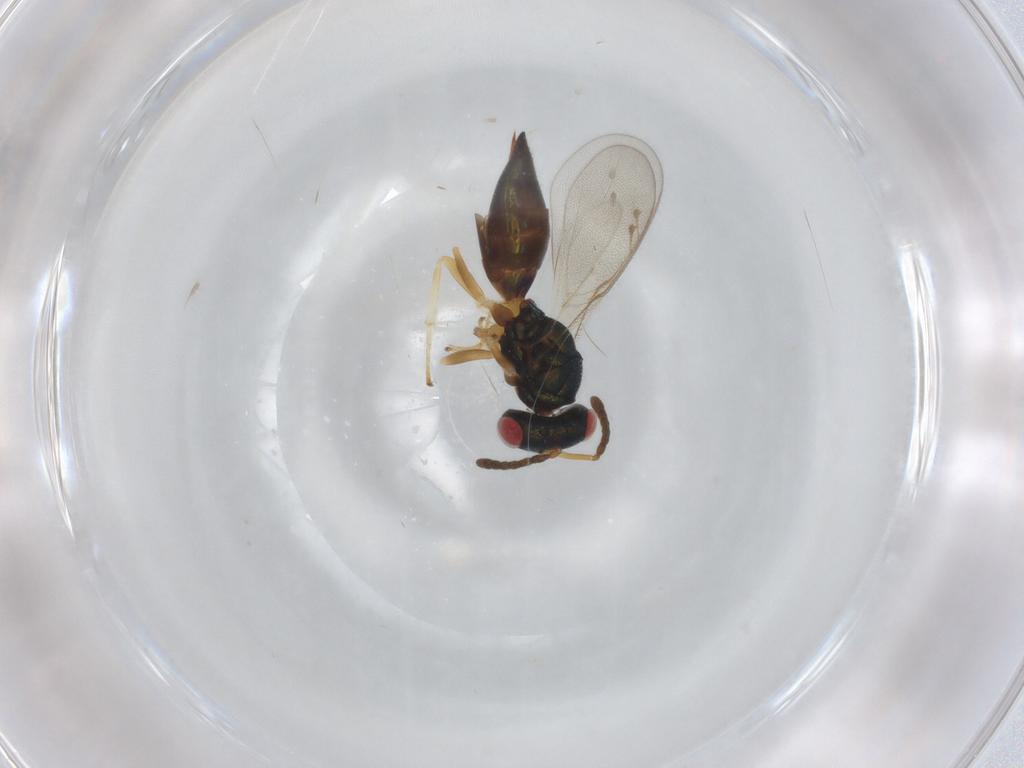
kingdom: Animalia
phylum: Arthropoda
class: Insecta
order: Hymenoptera
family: Pteromalidae
